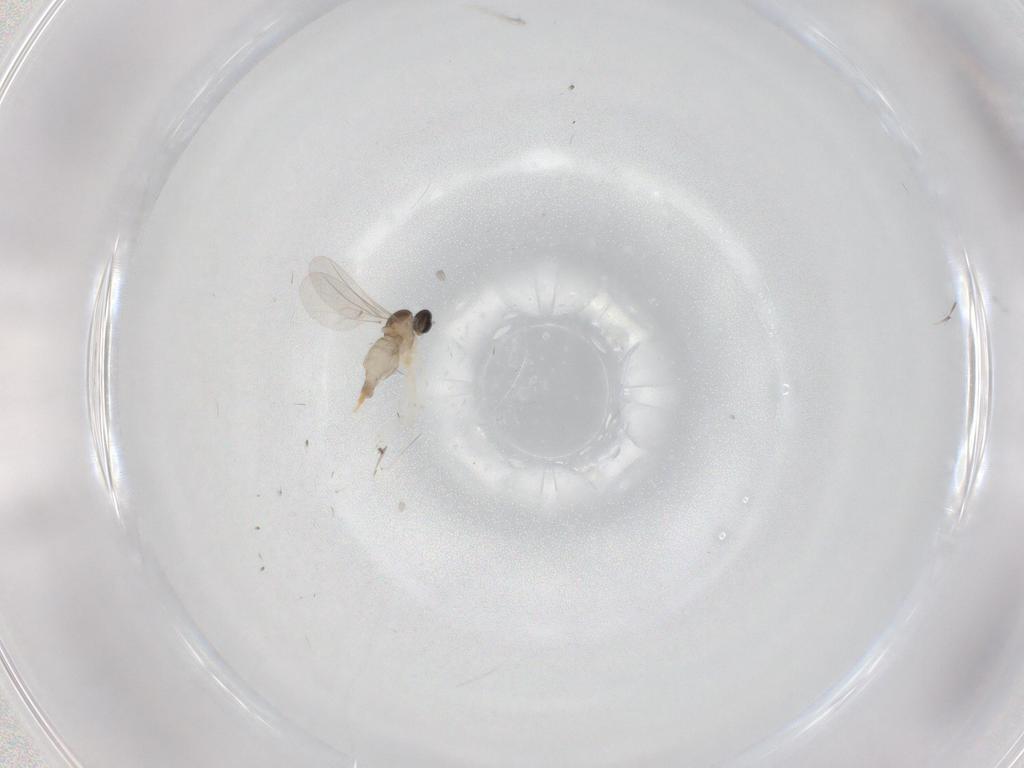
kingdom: Animalia
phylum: Arthropoda
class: Insecta
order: Diptera
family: Cecidomyiidae
